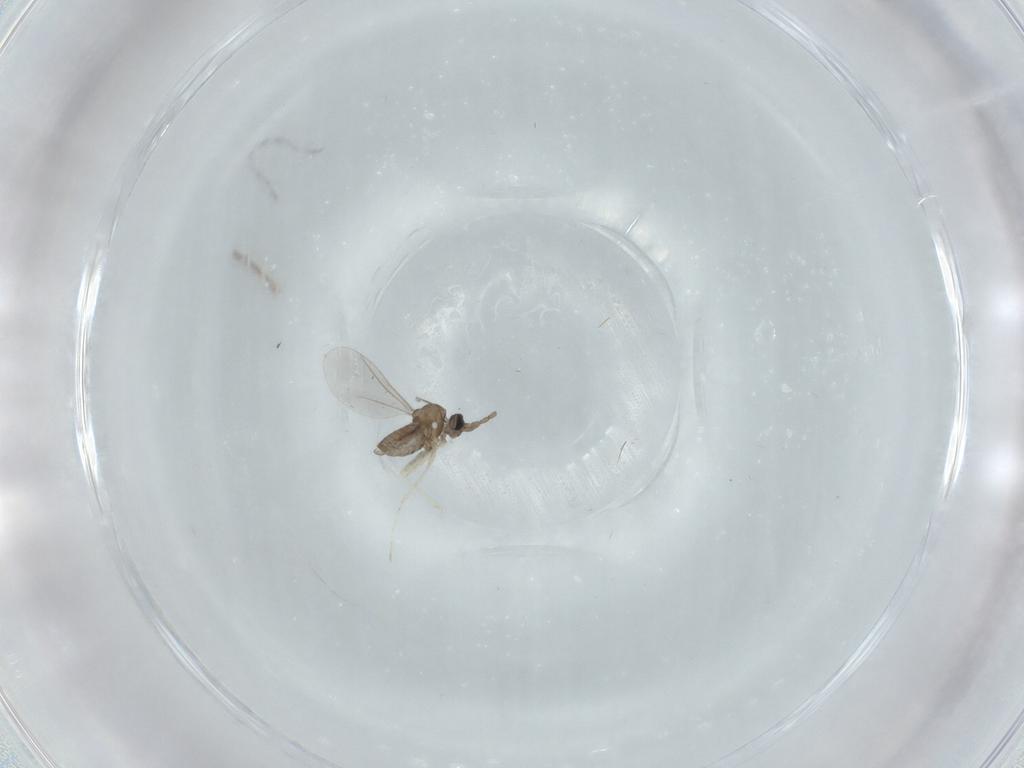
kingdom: Animalia
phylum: Arthropoda
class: Insecta
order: Diptera
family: Cecidomyiidae
